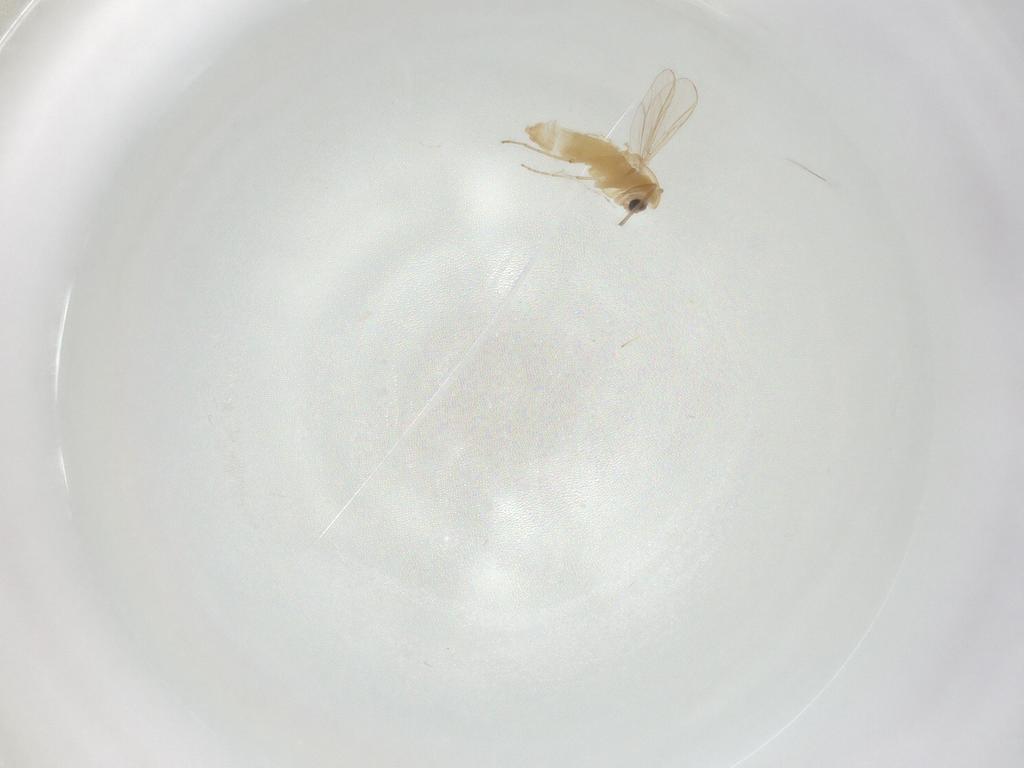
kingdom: Animalia
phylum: Arthropoda
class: Insecta
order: Diptera
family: Chironomidae
